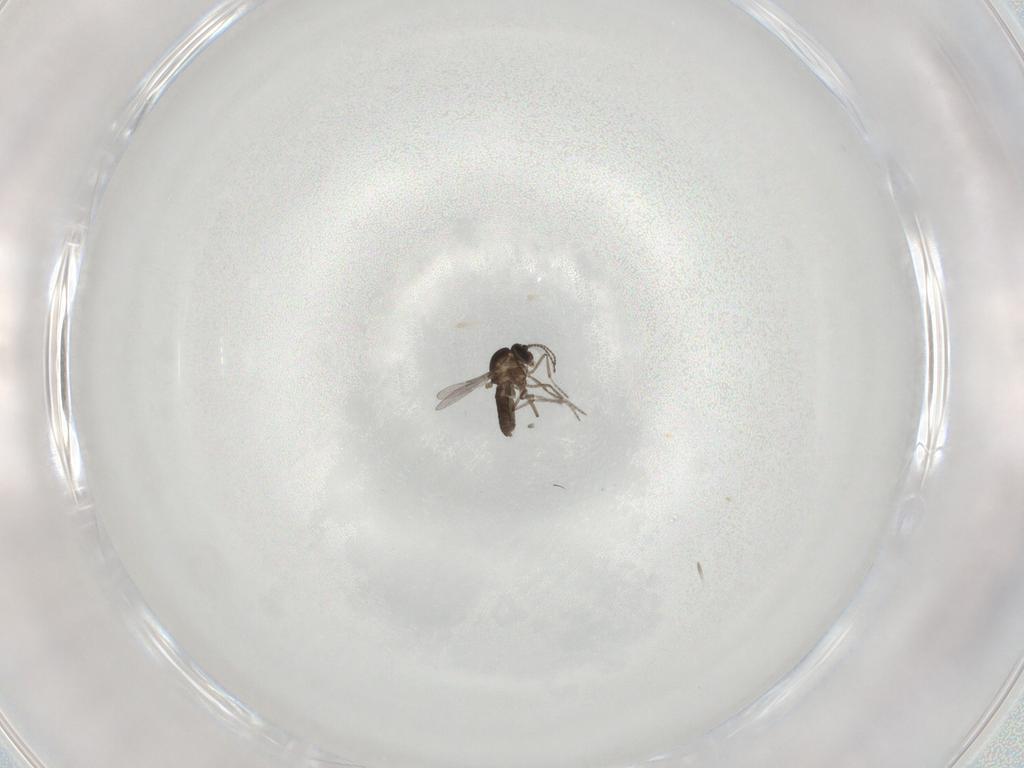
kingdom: Animalia
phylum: Arthropoda
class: Insecta
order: Diptera
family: Ceratopogonidae
